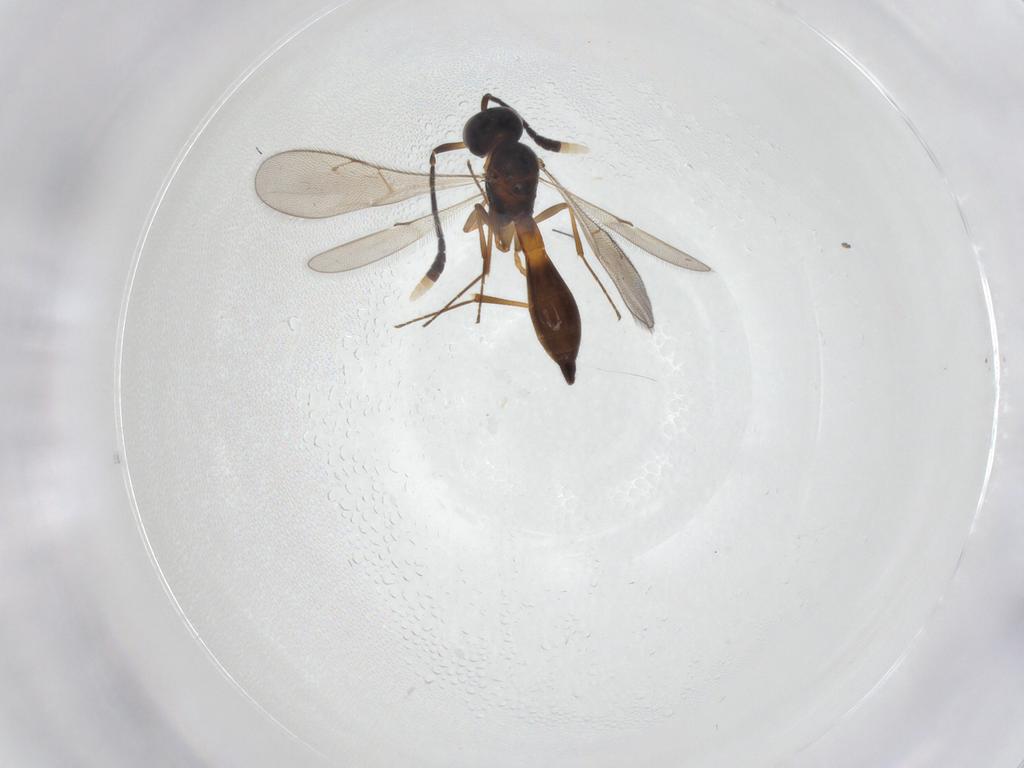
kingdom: Animalia
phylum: Arthropoda
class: Insecta
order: Hymenoptera
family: Scelionidae
